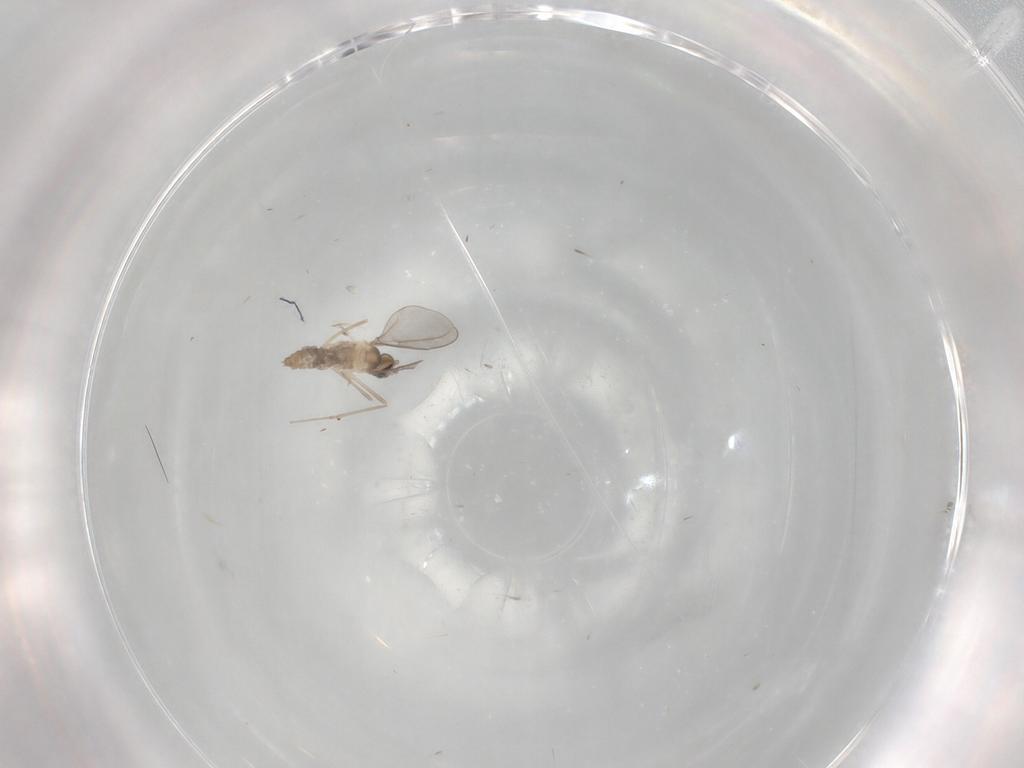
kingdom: Animalia
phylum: Arthropoda
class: Insecta
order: Diptera
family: Cecidomyiidae
